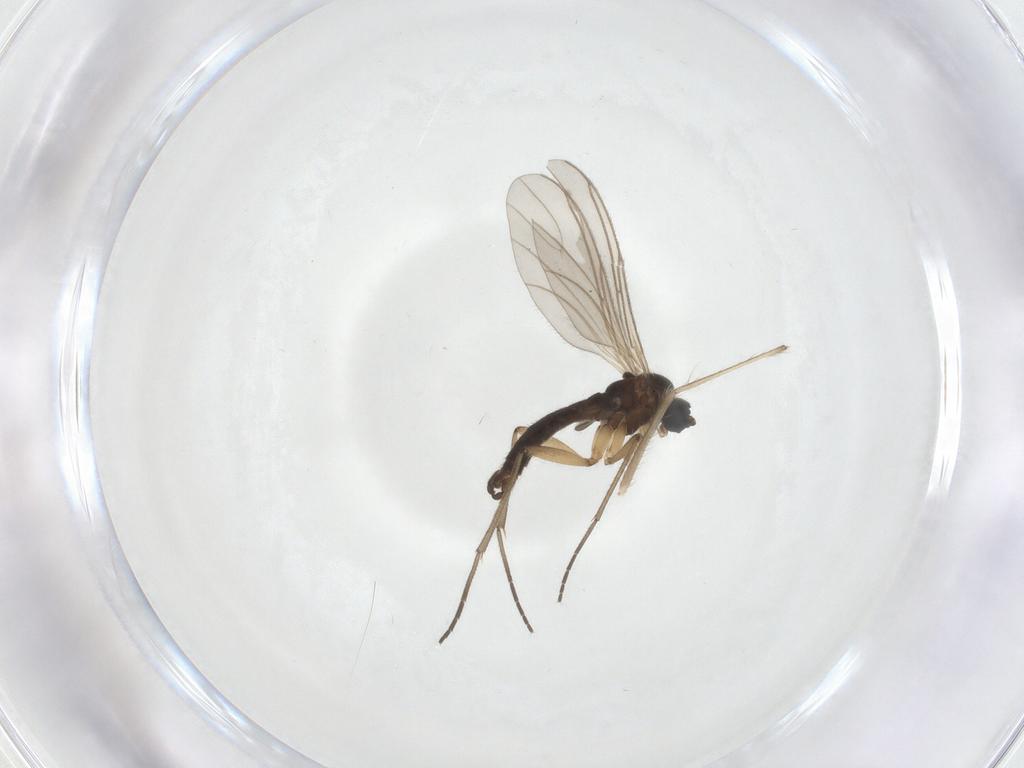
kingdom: Animalia
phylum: Arthropoda
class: Insecta
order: Diptera
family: Sciaridae
